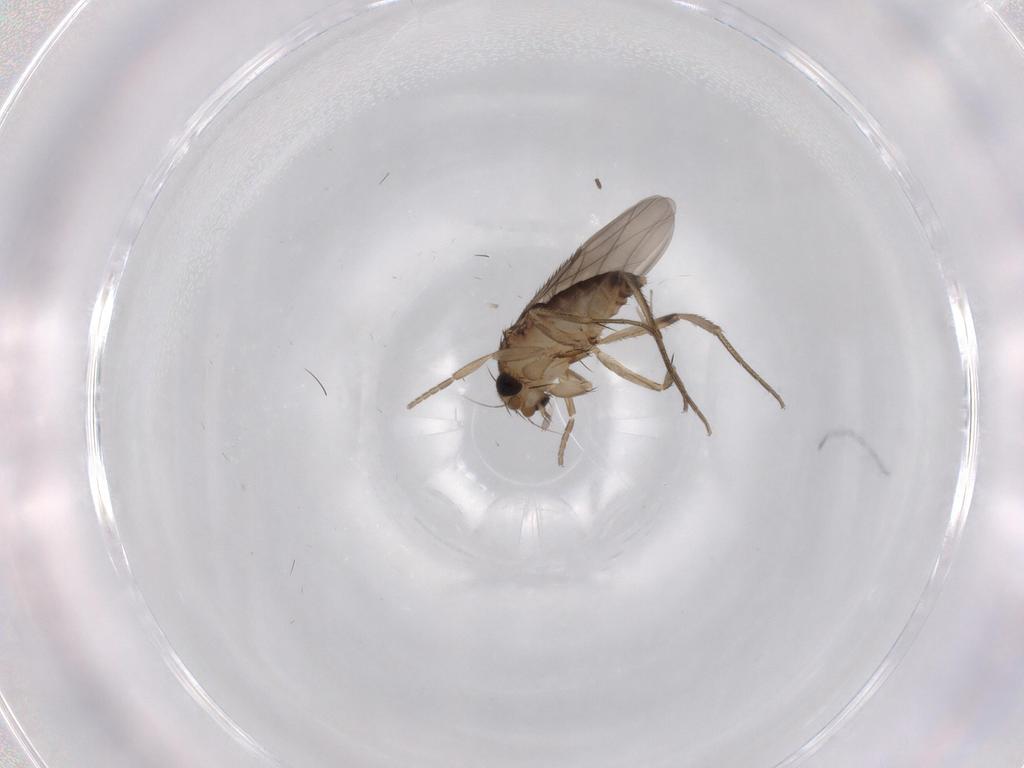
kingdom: Animalia
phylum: Arthropoda
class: Insecta
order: Diptera
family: Phoridae
